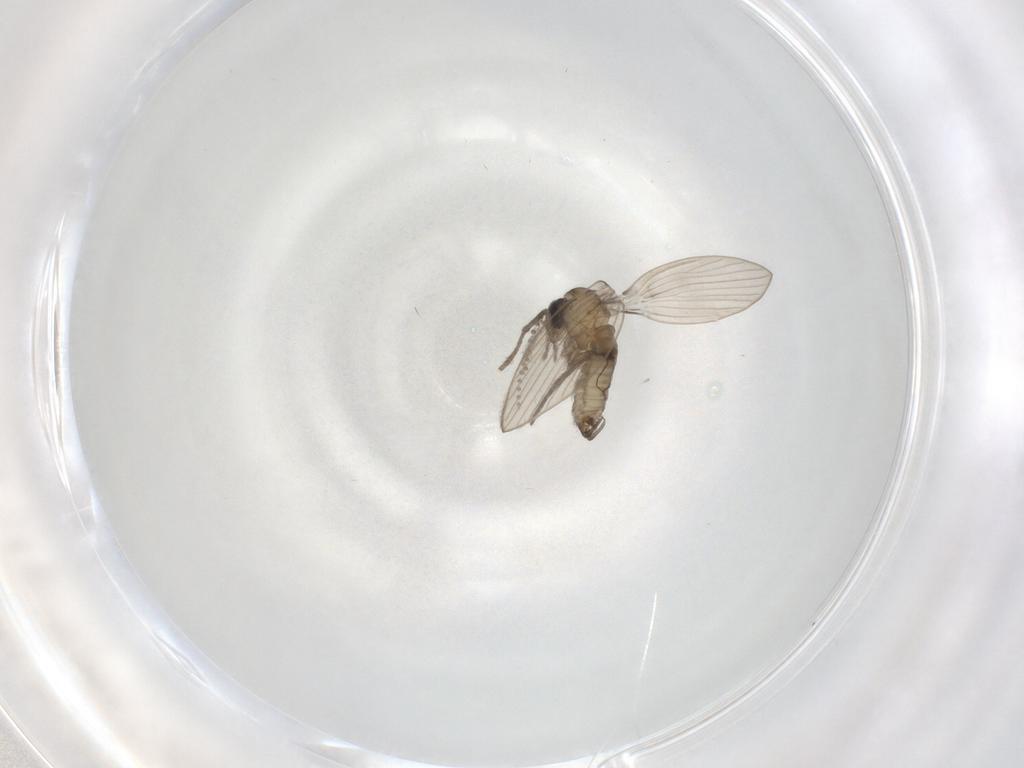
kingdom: Animalia
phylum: Arthropoda
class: Insecta
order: Diptera
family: Psychodidae
